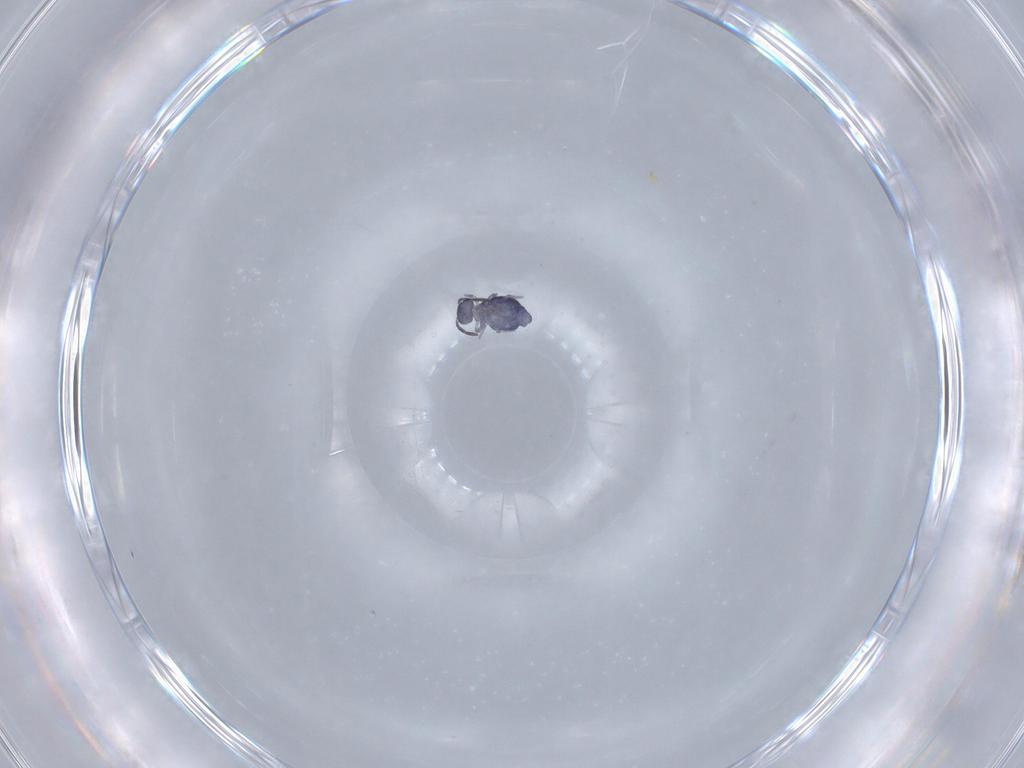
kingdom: Animalia
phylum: Arthropoda
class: Collembola
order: Symphypleona
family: Katiannidae
